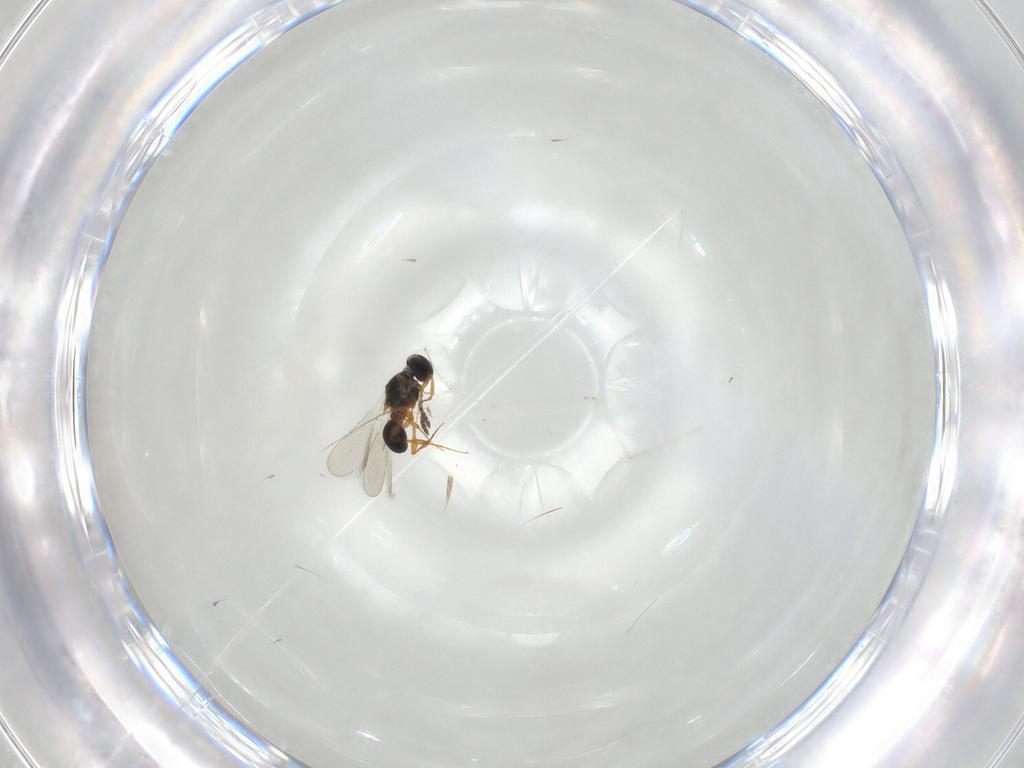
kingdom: Animalia
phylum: Arthropoda
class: Insecta
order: Hymenoptera
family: Platygastridae
